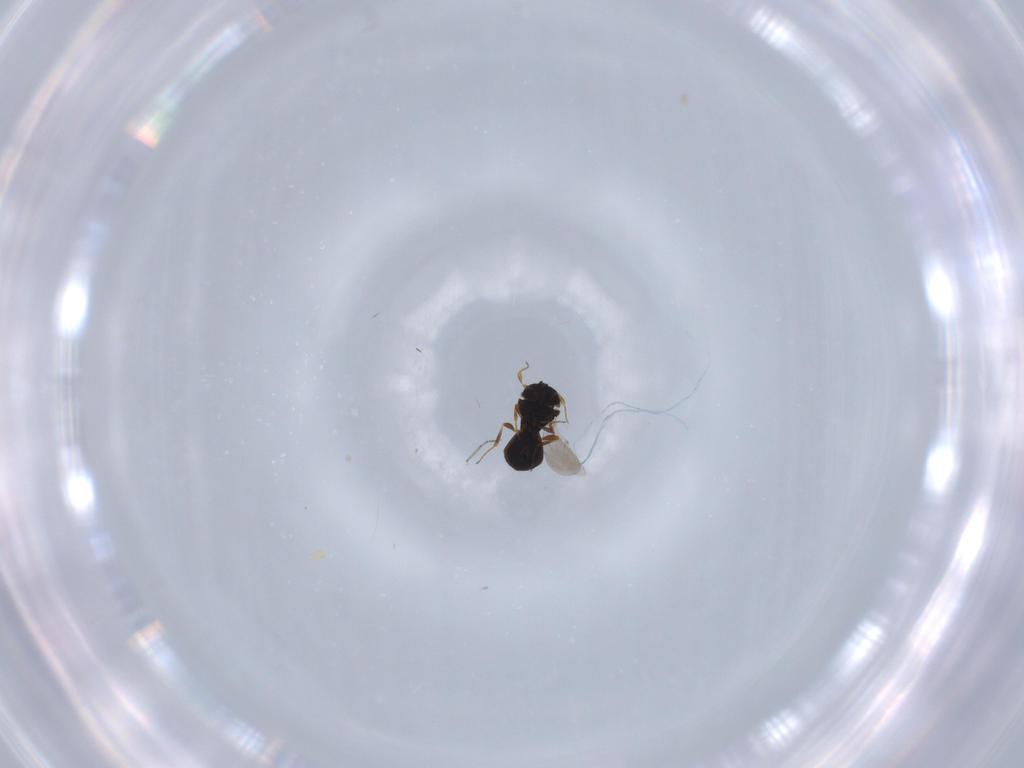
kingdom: Animalia
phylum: Arthropoda
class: Insecta
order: Hymenoptera
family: Platygastridae
